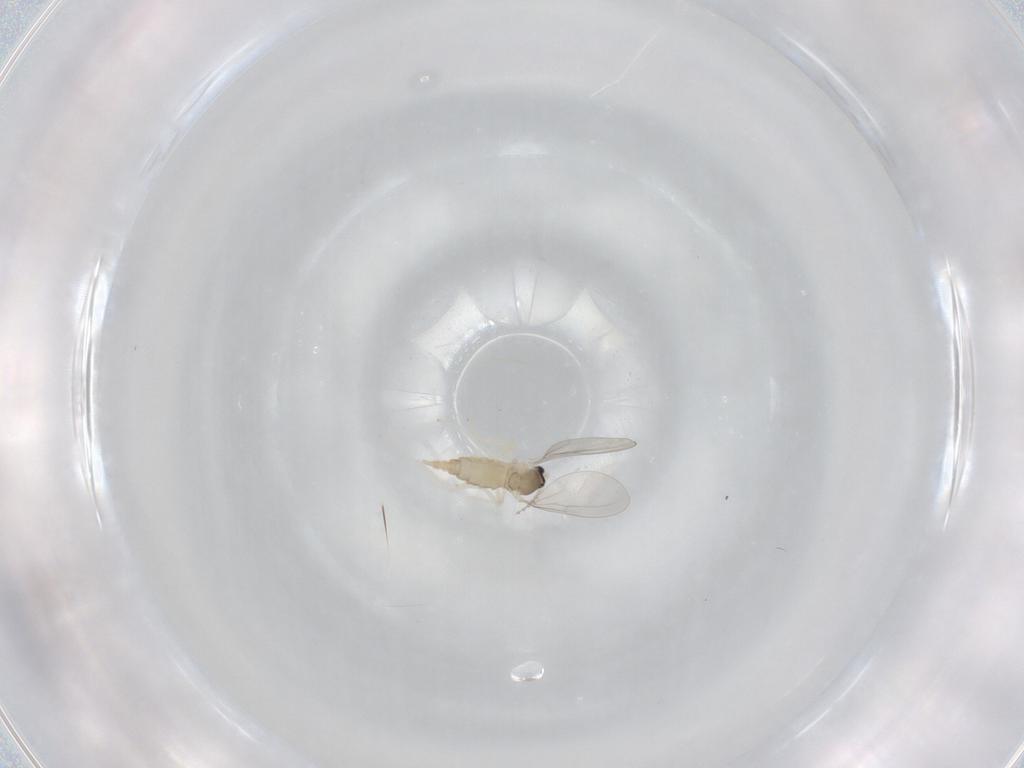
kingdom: Animalia
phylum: Arthropoda
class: Insecta
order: Diptera
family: Cecidomyiidae
